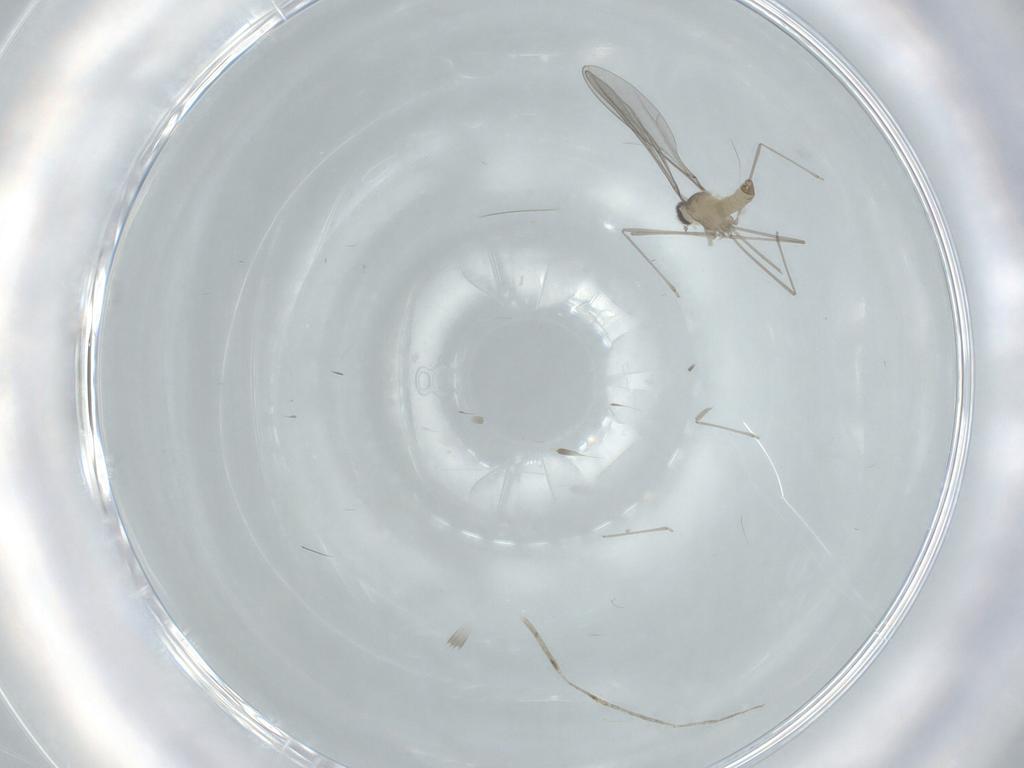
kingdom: Animalia
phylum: Arthropoda
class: Insecta
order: Diptera
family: Cecidomyiidae
